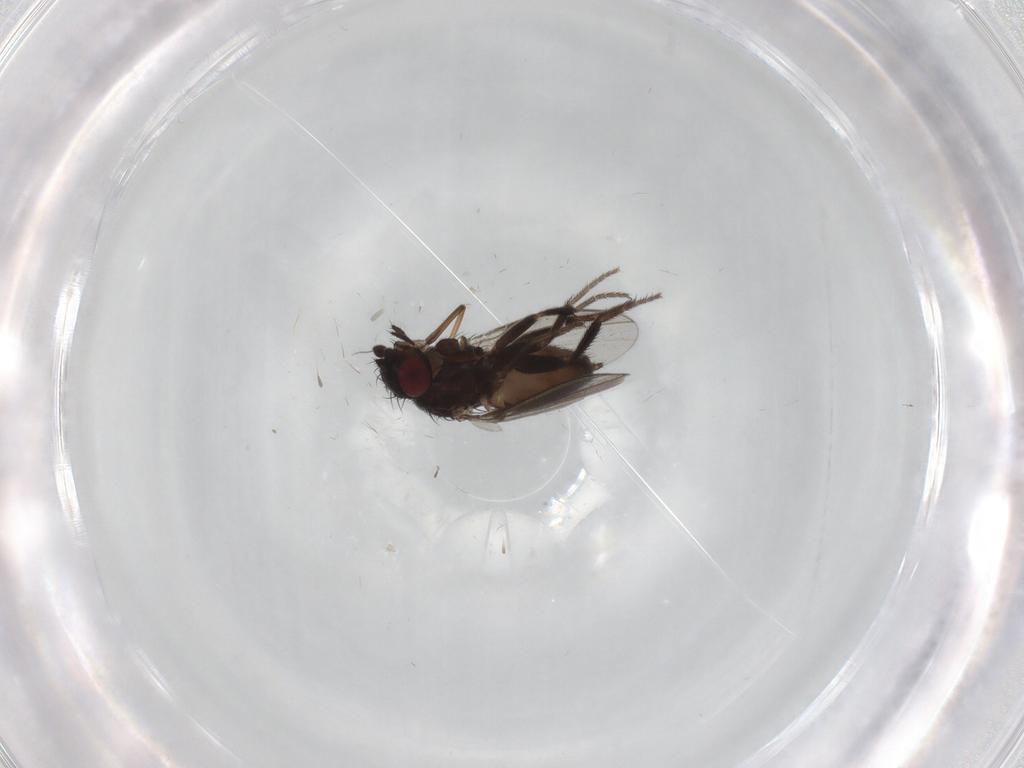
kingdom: Animalia
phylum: Arthropoda
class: Insecta
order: Diptera
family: Milichiidae
